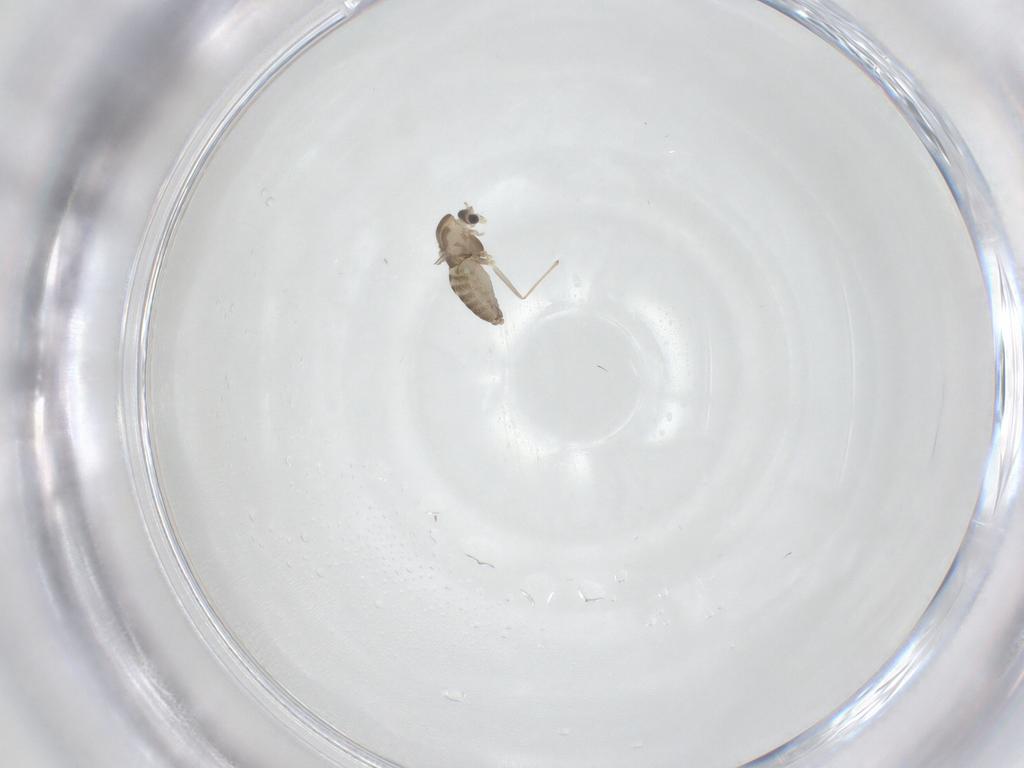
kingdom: Animalia
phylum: Arthropoda
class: Insecta
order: Diptera
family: Chironomidae
